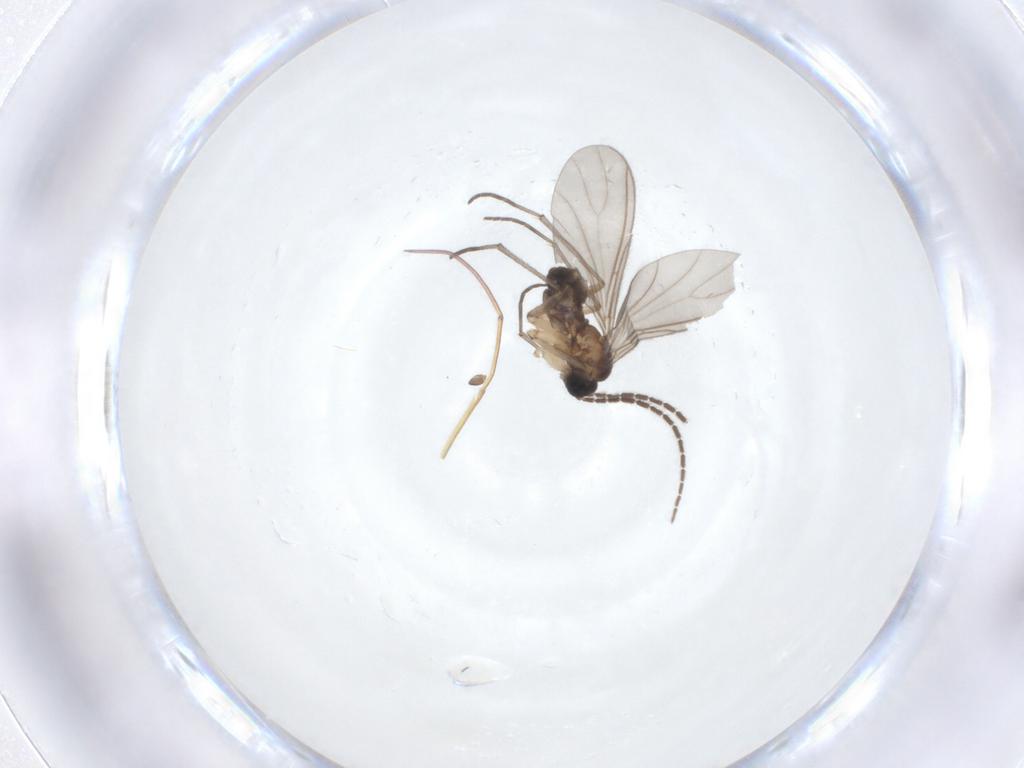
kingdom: Animalia
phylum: Arthropoda
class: Insecta
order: Diptera
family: Sciaridae
